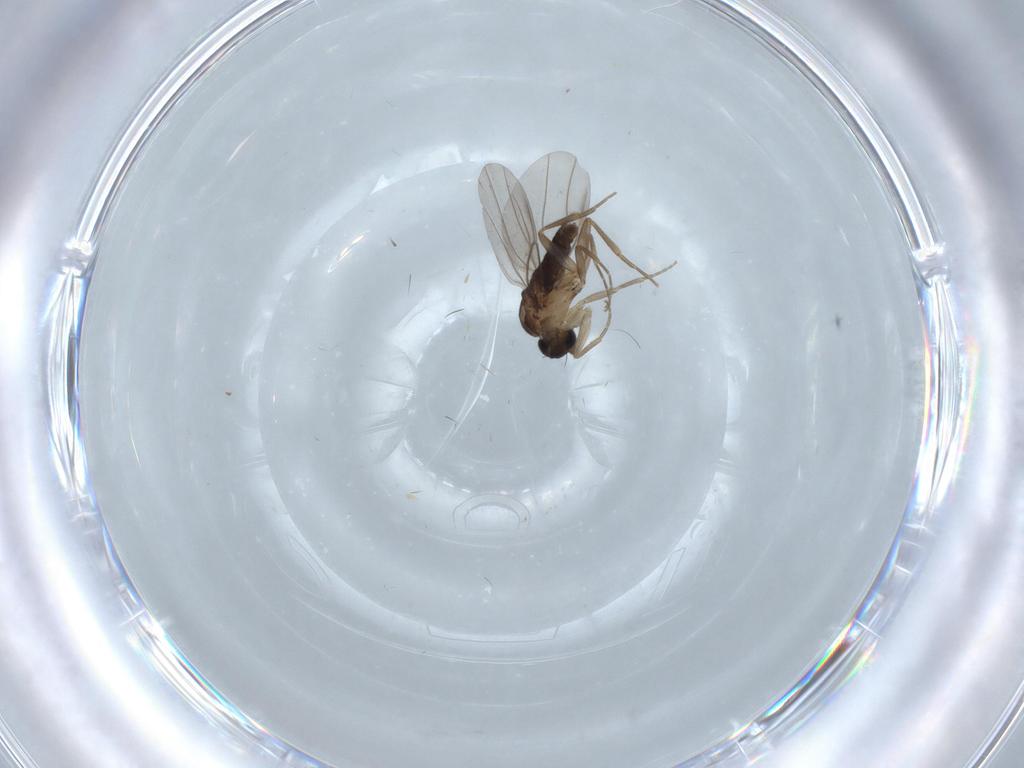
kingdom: Animalia
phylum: Arthropoda
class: Insecta
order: Diptera
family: Phoridae
